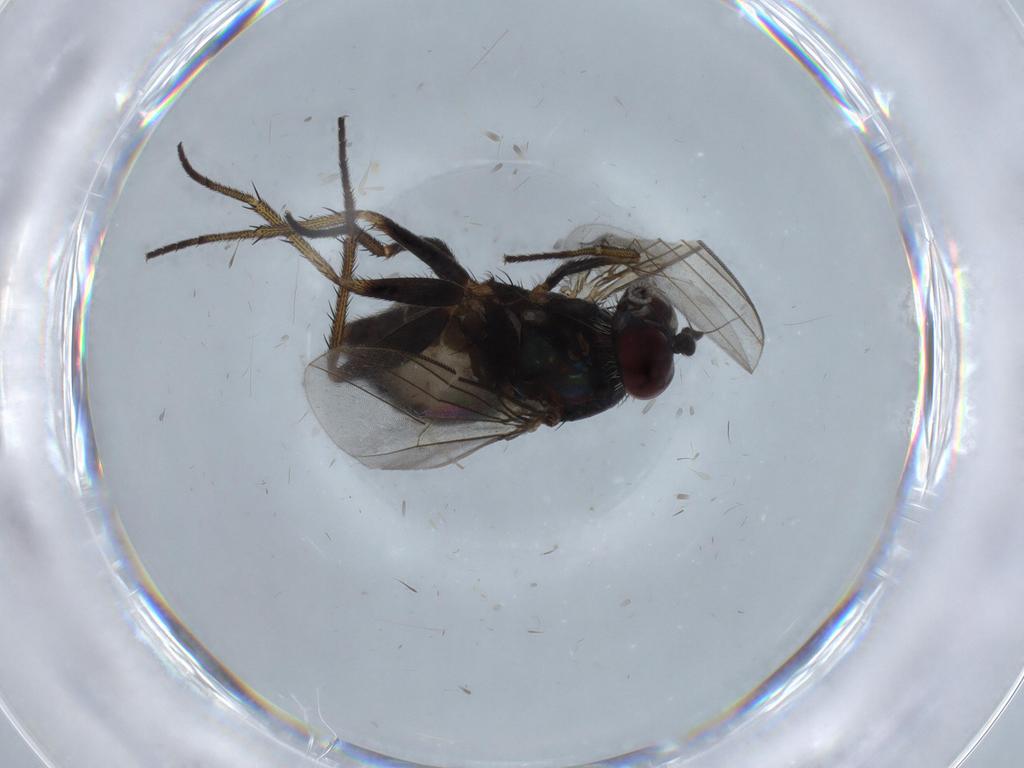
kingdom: Animalia
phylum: Arthropoda
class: Insecta
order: Diptera
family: Dolichopodidae
